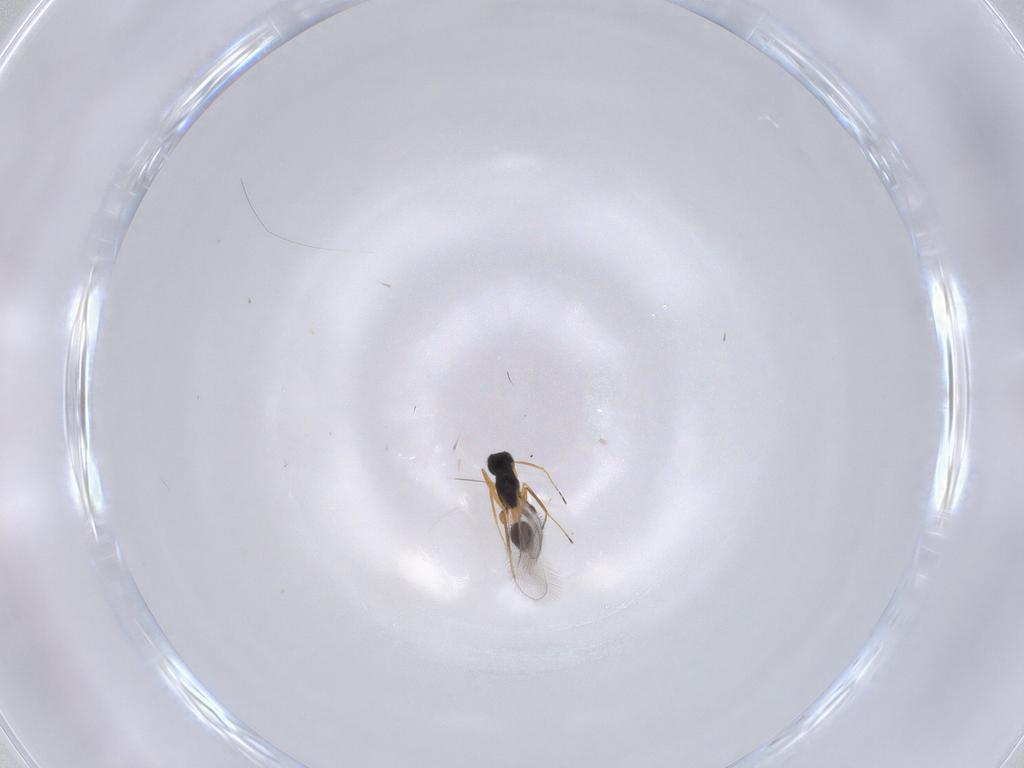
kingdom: Animalia
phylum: Arthropoda
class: Insecta
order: Hymenoptera
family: Mymaridae
